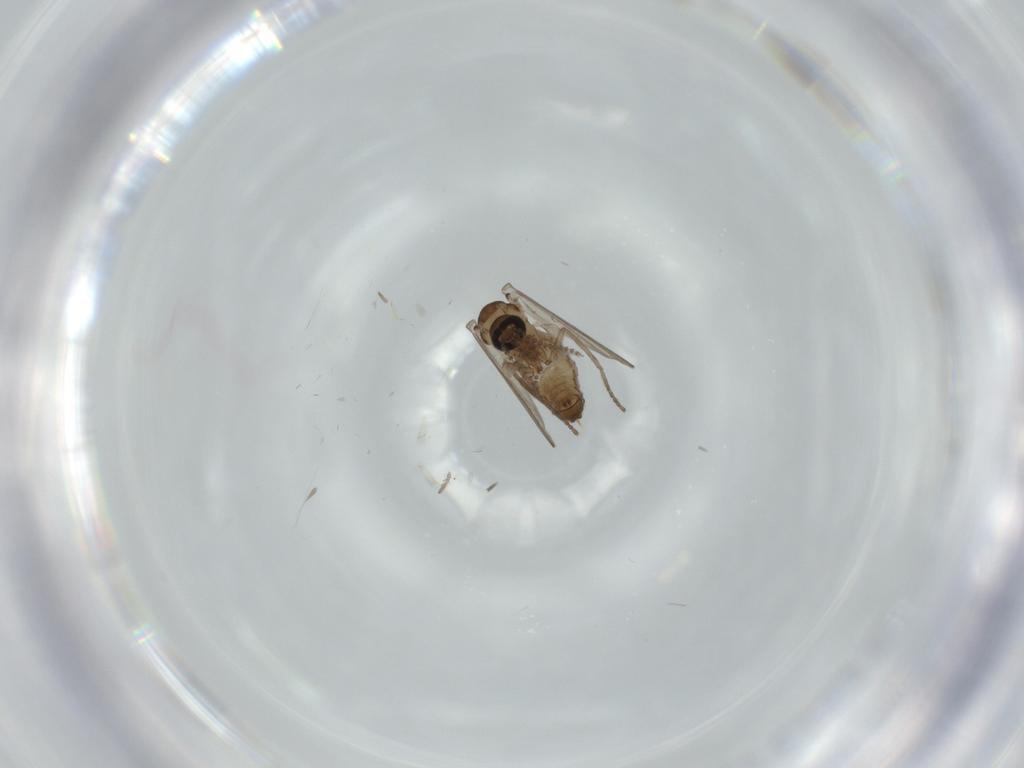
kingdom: Animalia
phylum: Arthropoda
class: Insecta
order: Diptera
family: Psychodidae
